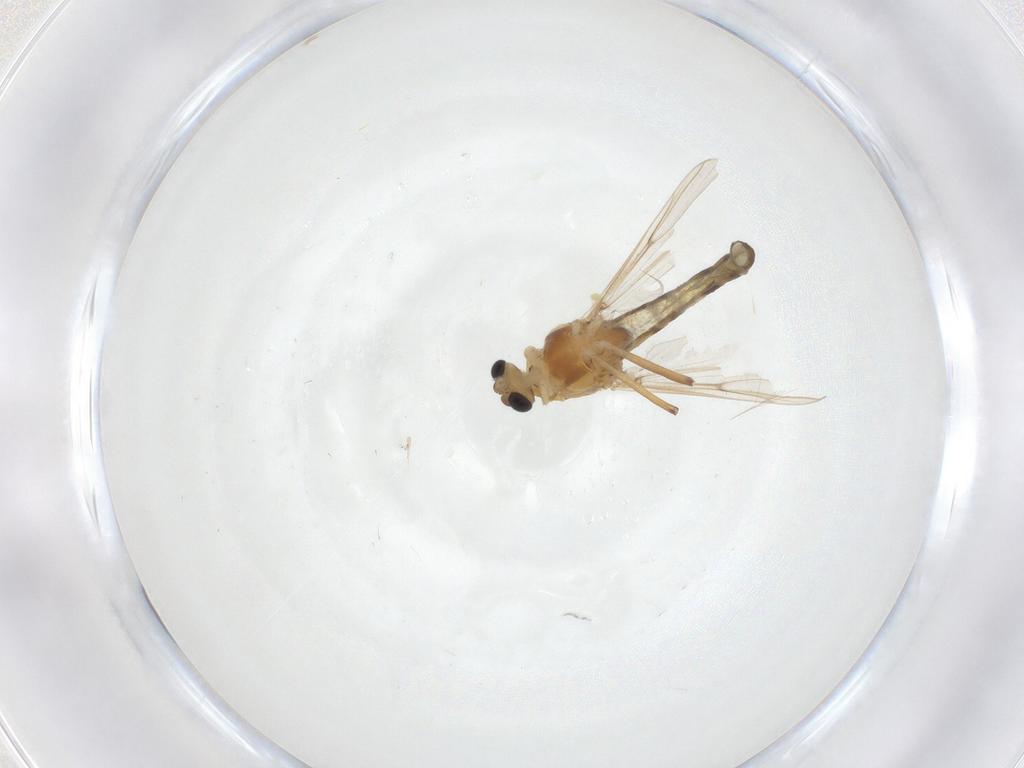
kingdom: Animalia
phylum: Arthropoda
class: Insecta
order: Diptera
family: Chironomidae
